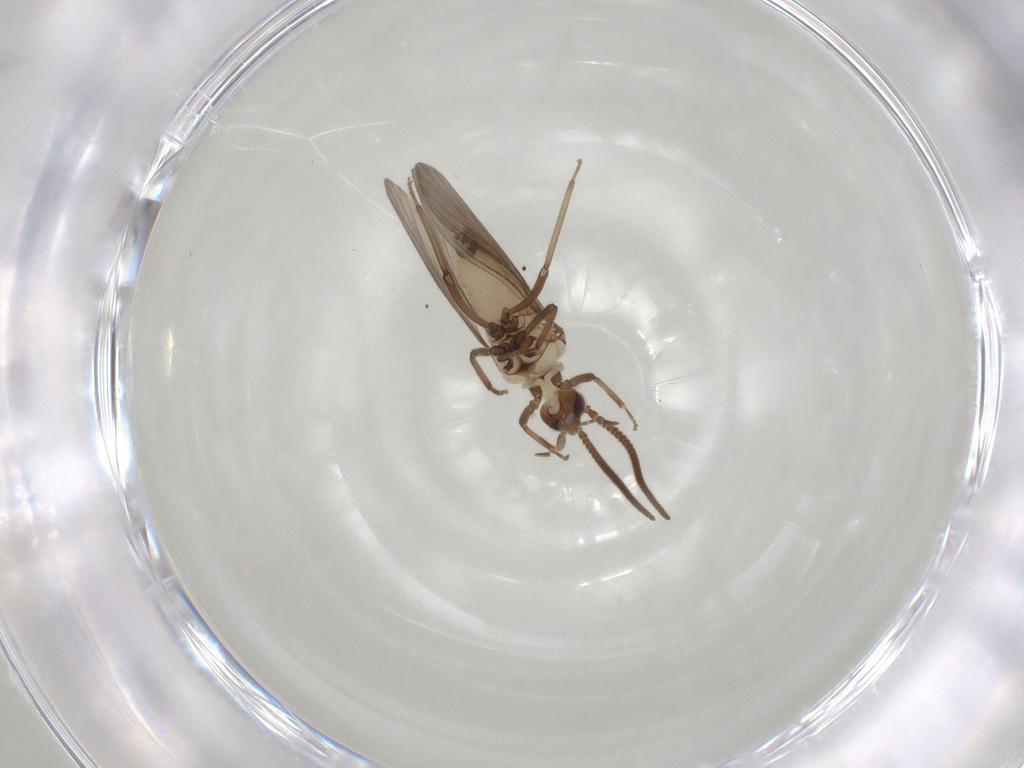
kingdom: Animalia
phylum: Arthropoda
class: Insecta
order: Neuroptera
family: Coniopterygidae
